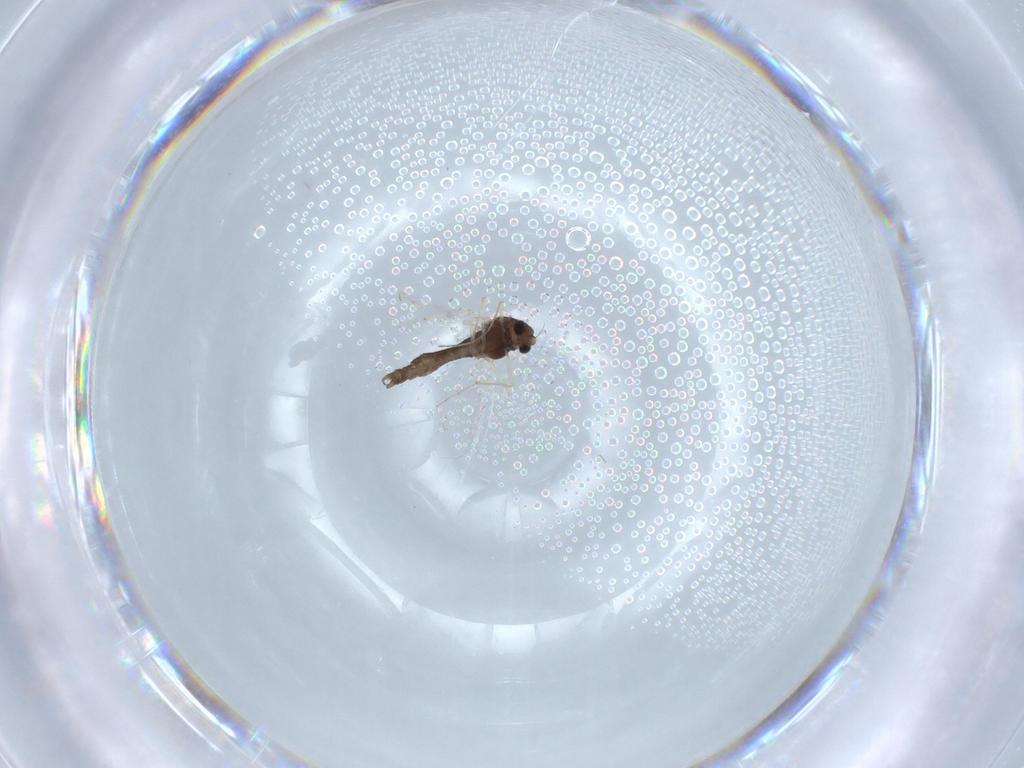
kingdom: Animalia
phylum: Arthropoda
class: Insecta
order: Diptera
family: Chironomidae
